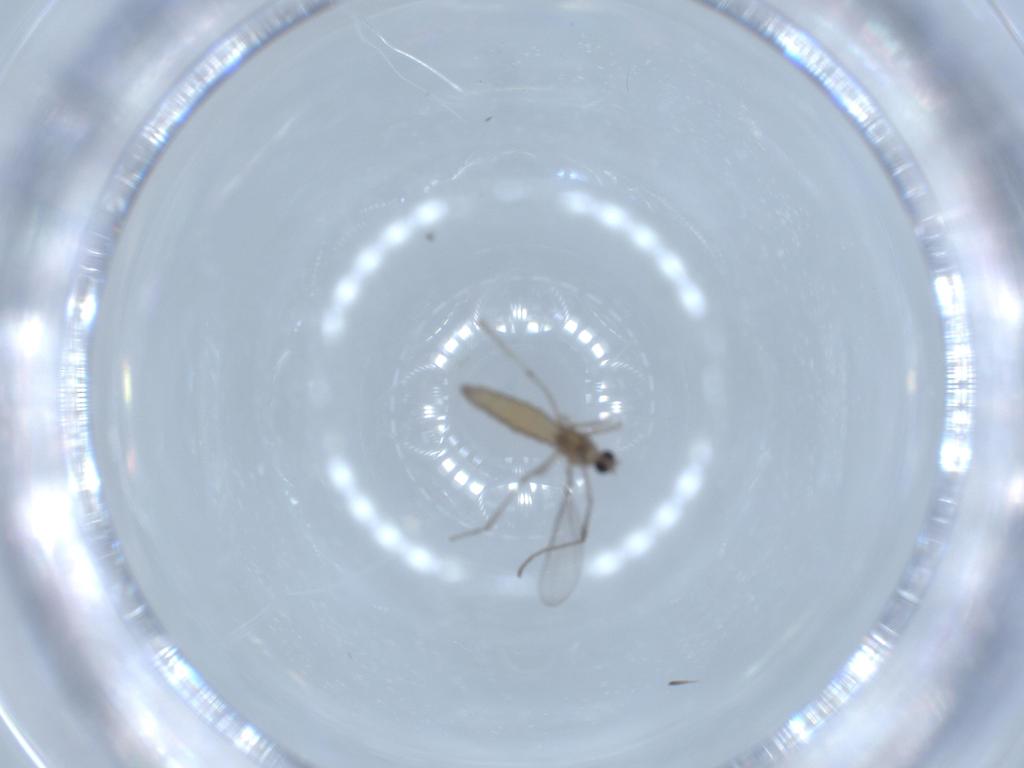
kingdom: Animalia
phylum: Arthropoda
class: Insecta
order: Diptera
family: Cecidomyiidae
